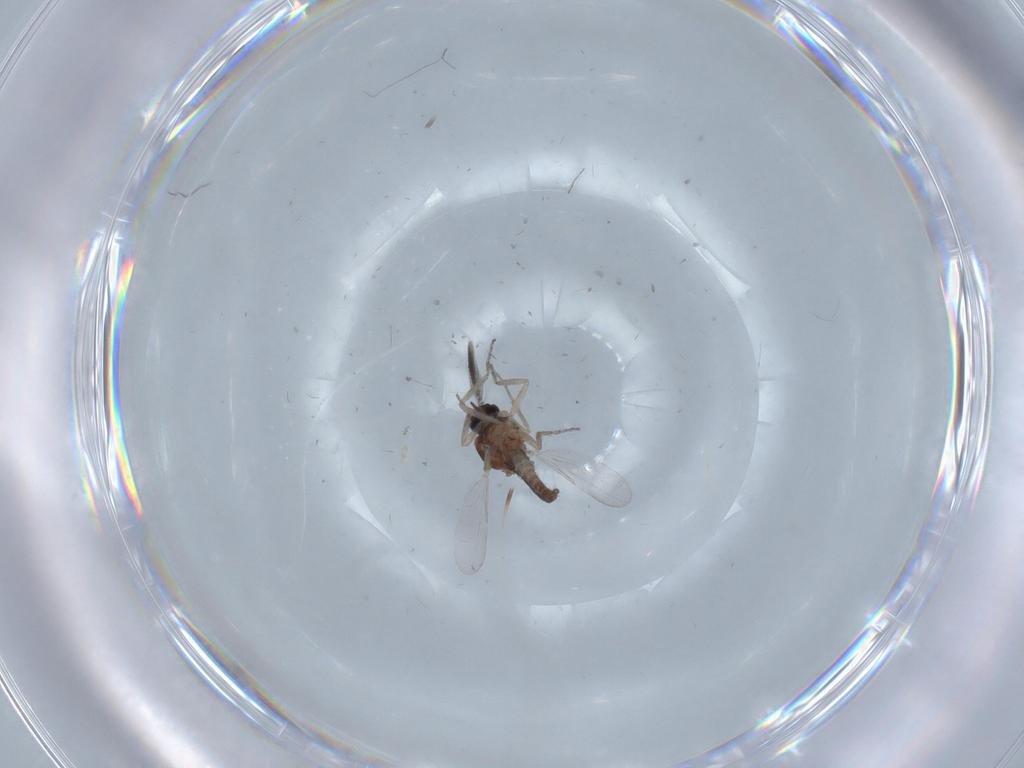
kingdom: Animalia
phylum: Arthropoda
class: Insecta
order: Diptera
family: Ceratopogonidae
